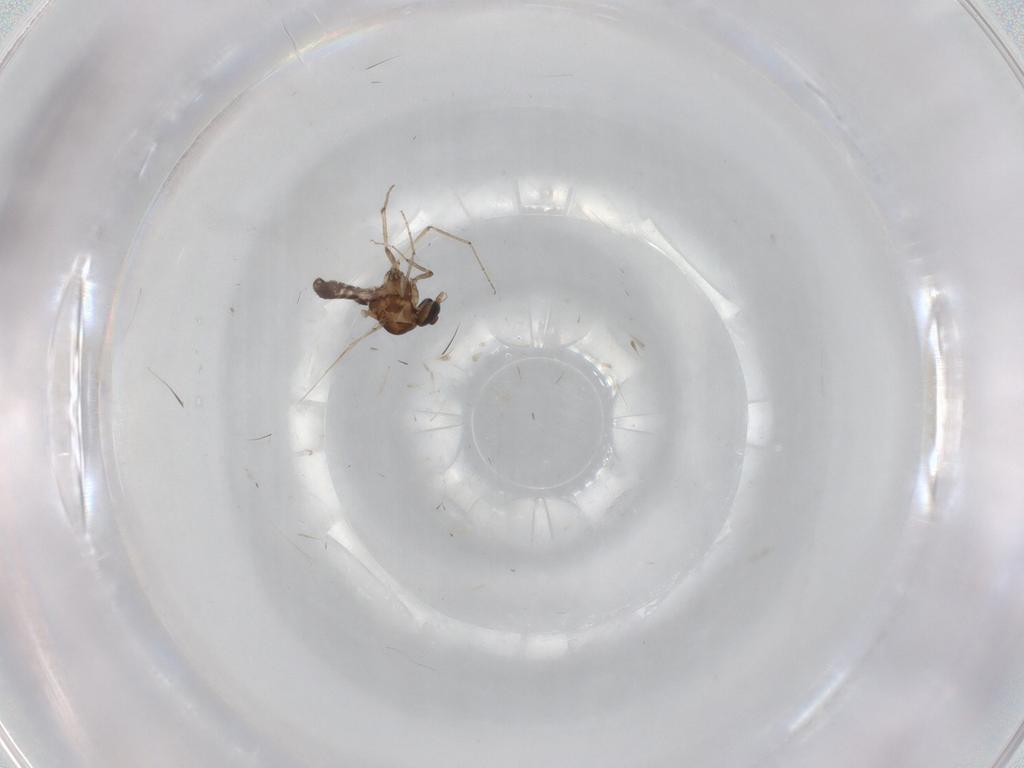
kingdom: Animalia
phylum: Arthropoda
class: Insecta
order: Diptera
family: Ceratopogonidae
